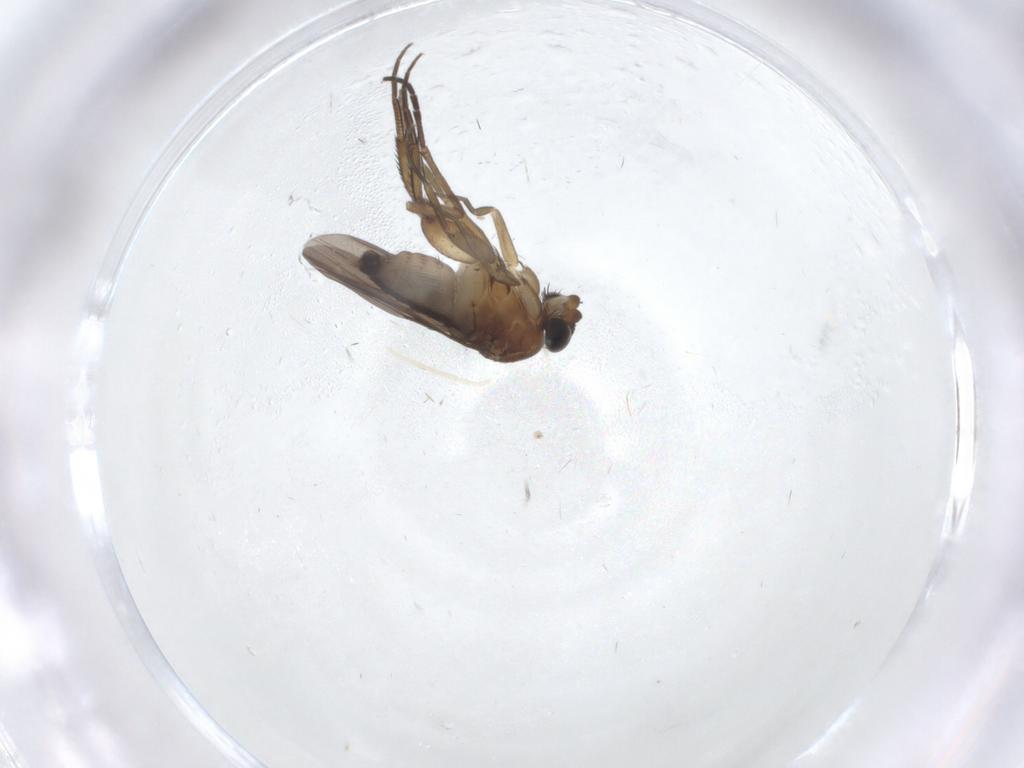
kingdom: Animalia
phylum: Arthropoda
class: Insecta
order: Diptera
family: Phoridae
